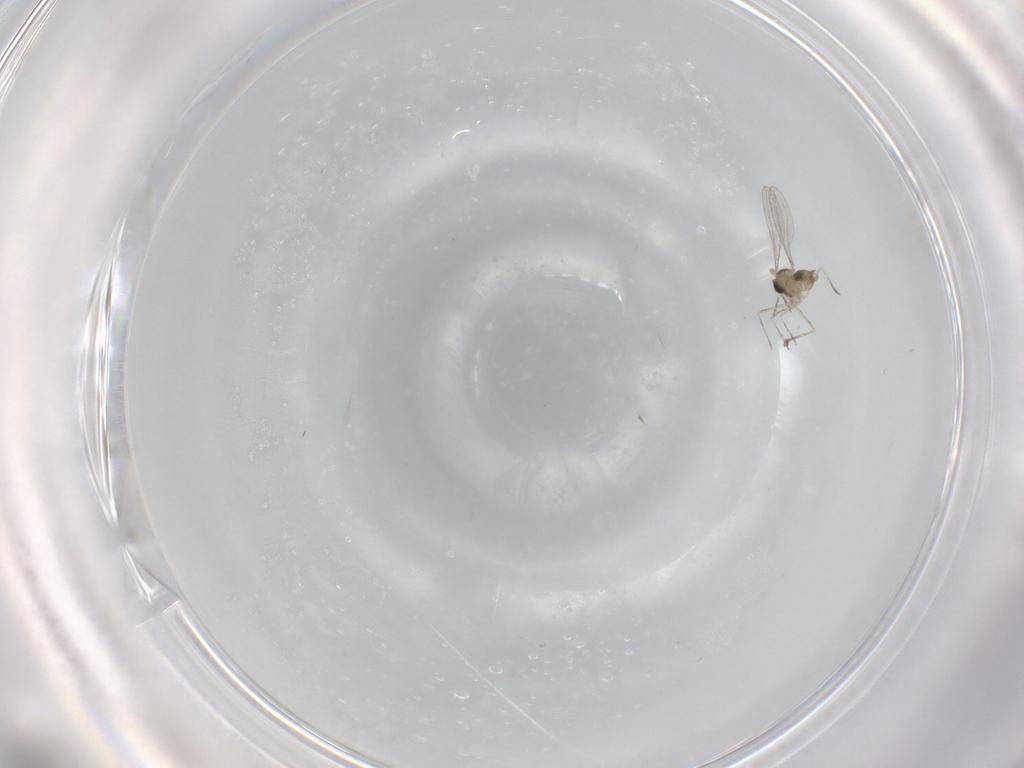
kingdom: Animalia
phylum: Arthropoda
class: Insecta
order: Diptera
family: Cecidomyiidae
